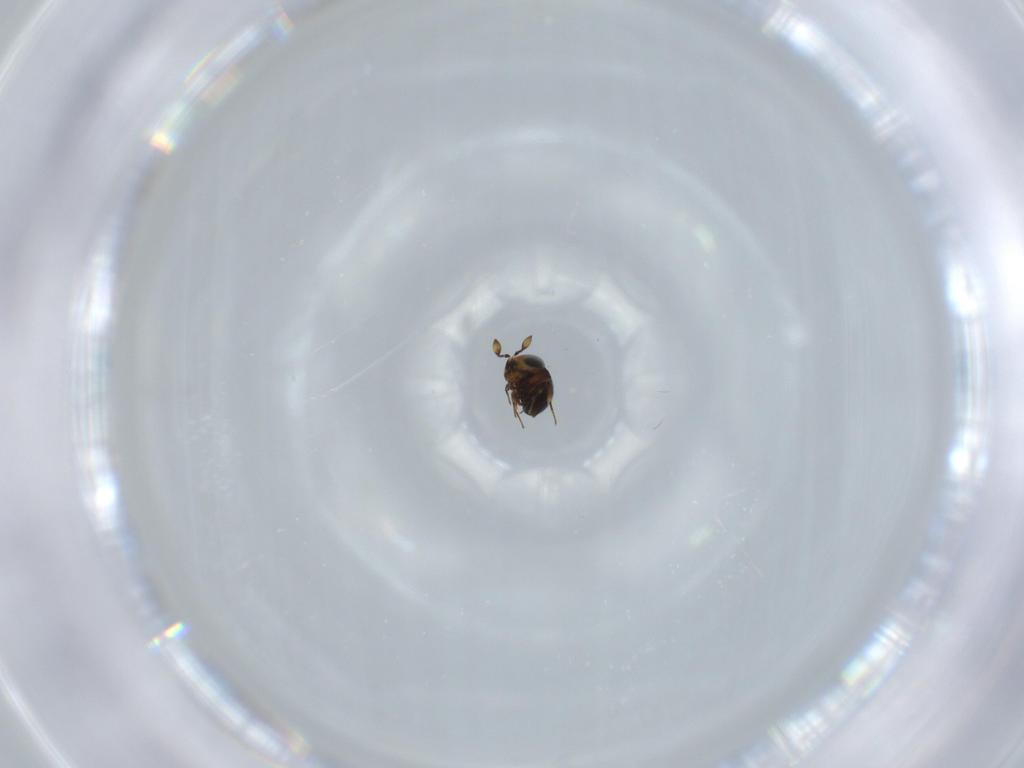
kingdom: Animalia
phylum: Arthropoda
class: Insecta
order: Hymenoptera
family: Scelionidae
